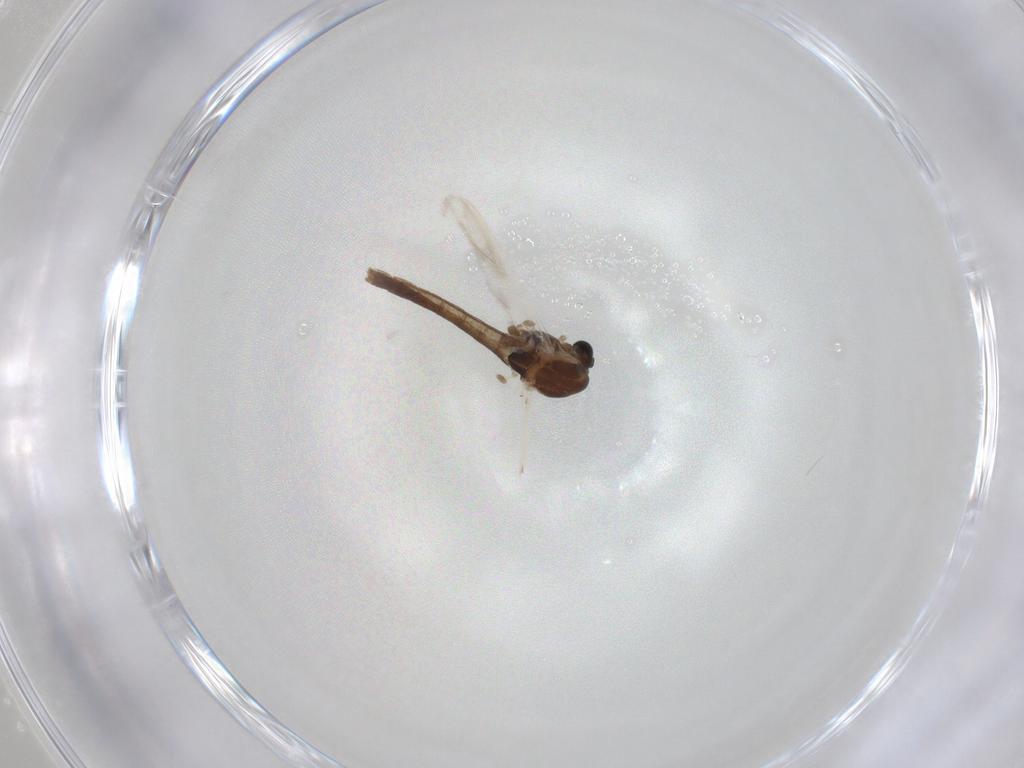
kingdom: Animalia
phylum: Arthropoda
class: Insecta
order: Diptera
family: Chironomidae
